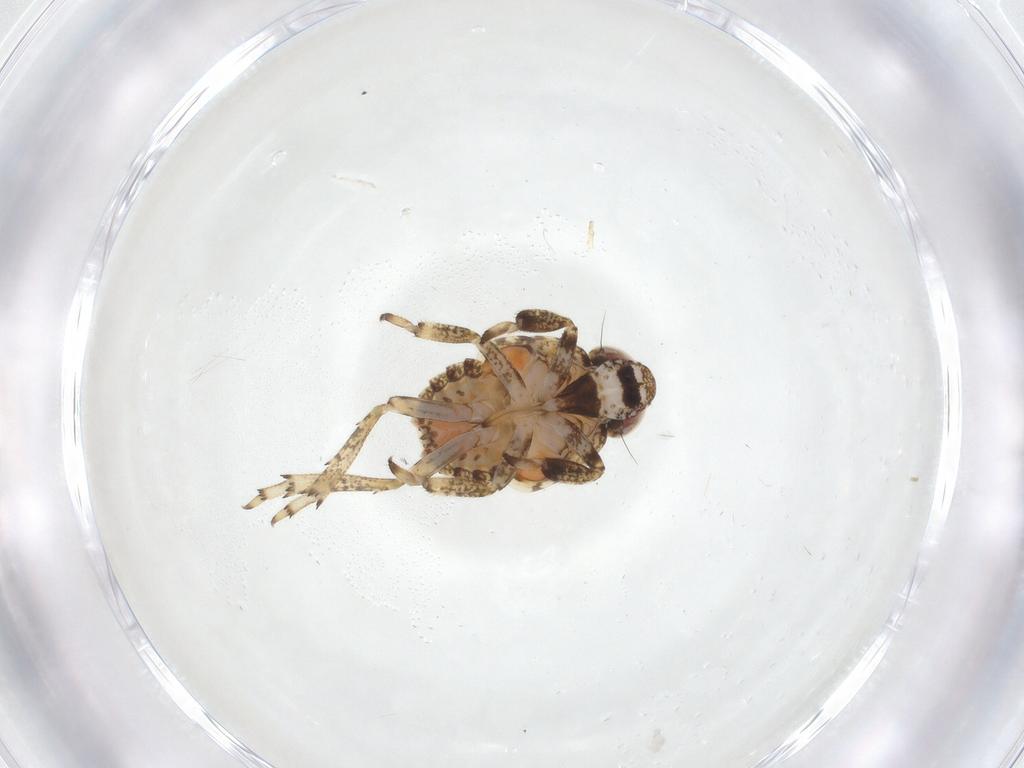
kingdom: Animalia
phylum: Arthropoda
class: Insecta
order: Hemiptera
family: Issidae
